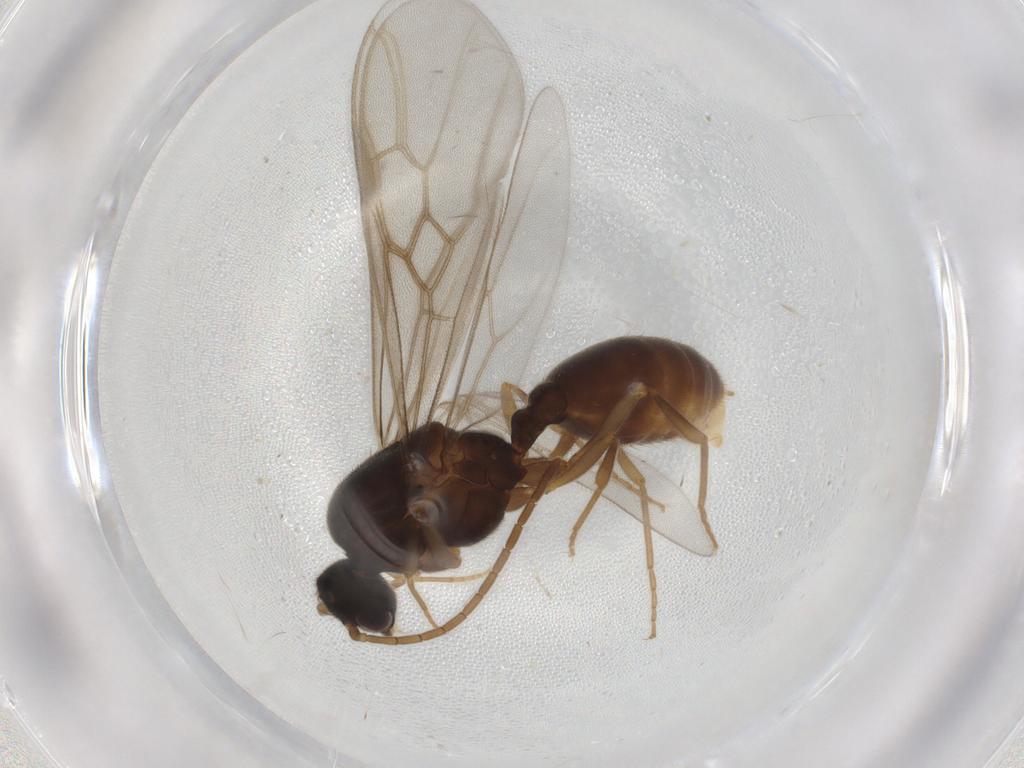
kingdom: Animalia
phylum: Arthropoda
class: Insecta
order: Hymenoptera
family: Formicidae
